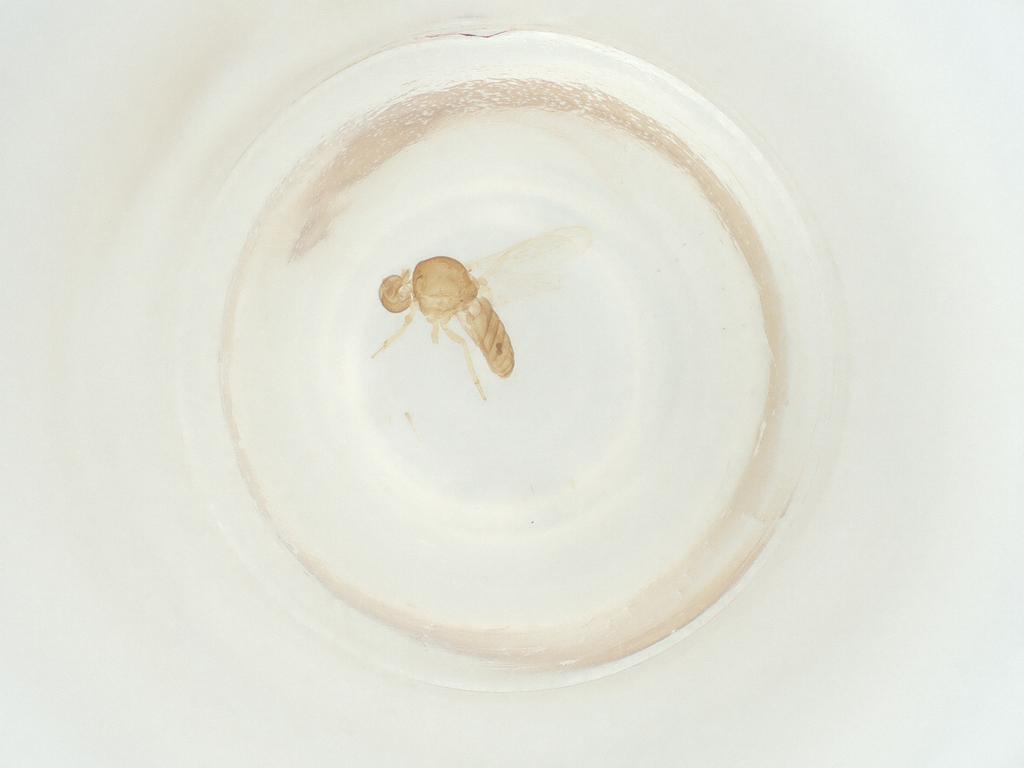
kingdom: Animalia
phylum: Arthropoda
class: Insecta
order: Diptera
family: Ceratopogonidae
